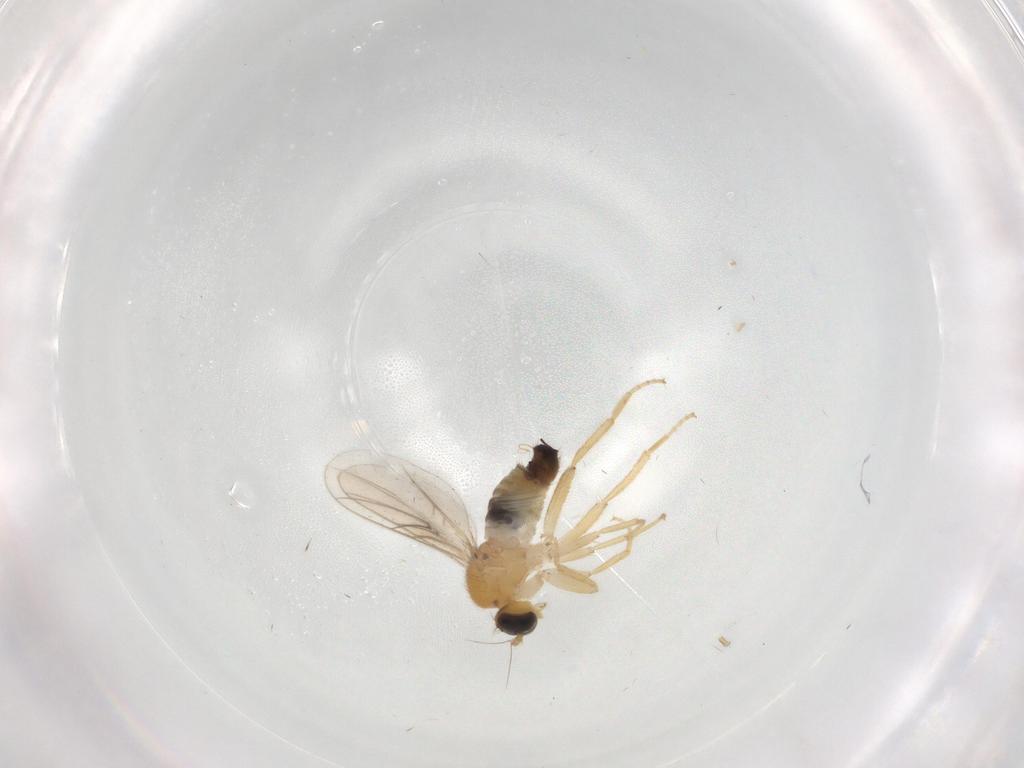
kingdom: Animalia
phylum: Arthropoda
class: Insecta
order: Diptera
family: Hybotidae
